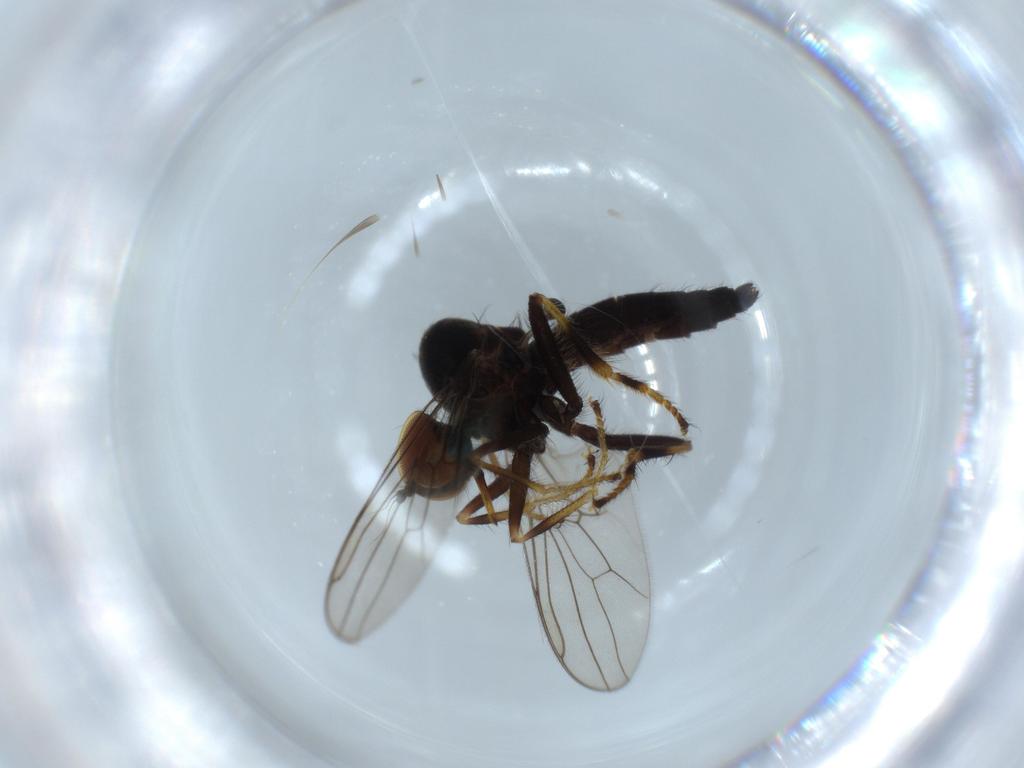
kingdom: Animalia
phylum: Arthropoda
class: Insecta
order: Diptera
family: Hybotidae
